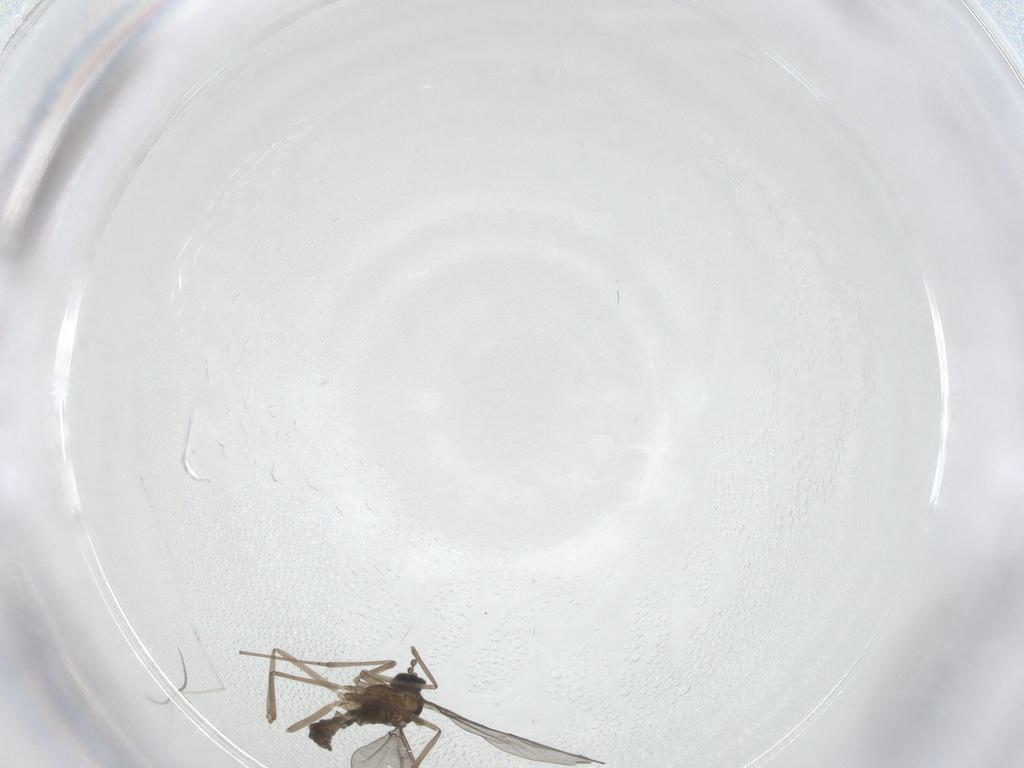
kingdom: Animalia
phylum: Arthropoda
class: Insecta
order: Diptera
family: Cecidomyiidae
